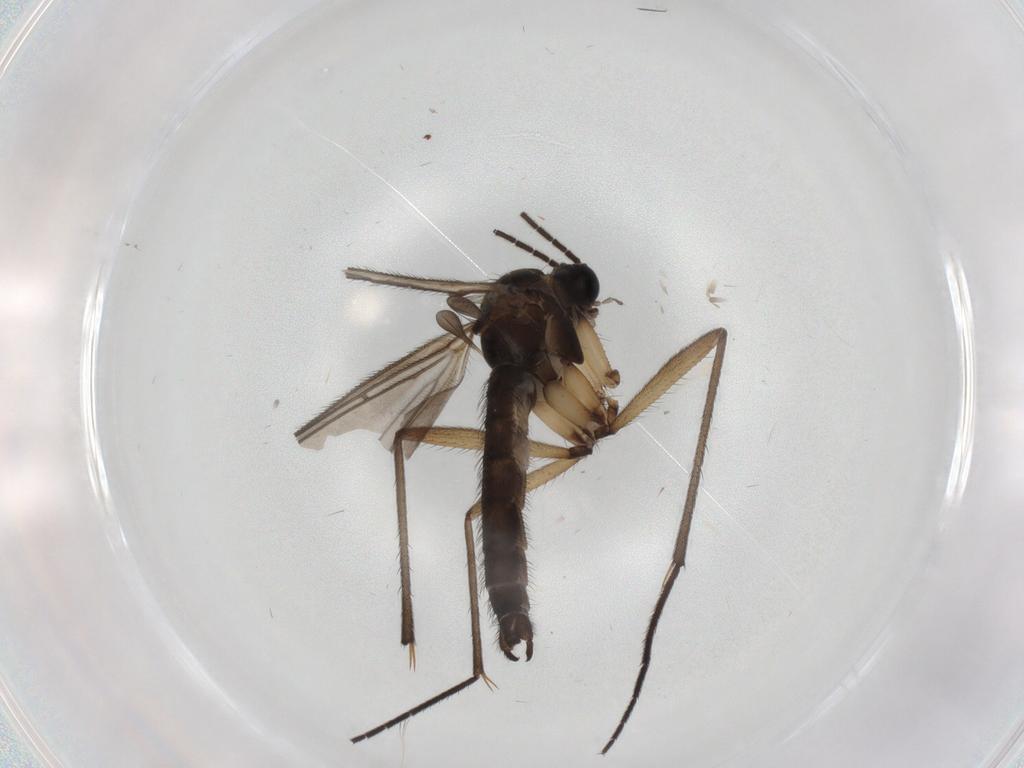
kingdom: Animalia
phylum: Arthropoda
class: Insecta
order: Diptera
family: Sciaridae
